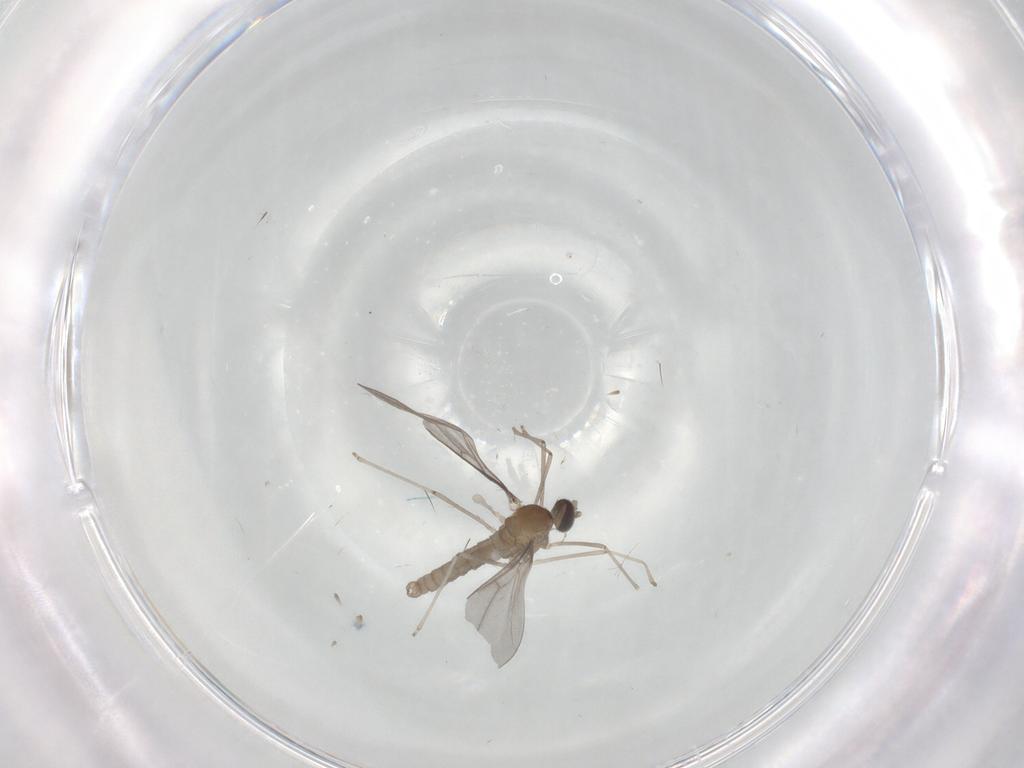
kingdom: Animalia
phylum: Arthropoda
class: Insecta
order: Diptera
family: Cecidomyiidae
